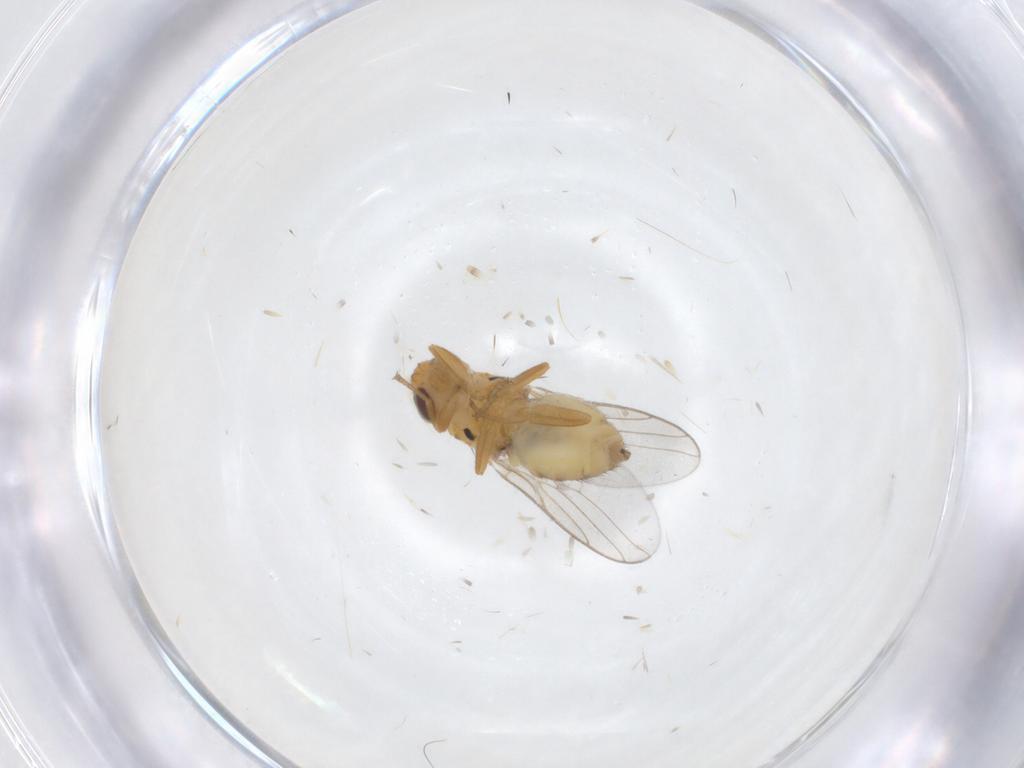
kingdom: Animalia
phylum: Arthropoda
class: Insecta
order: Diptera
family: Chloropidae
